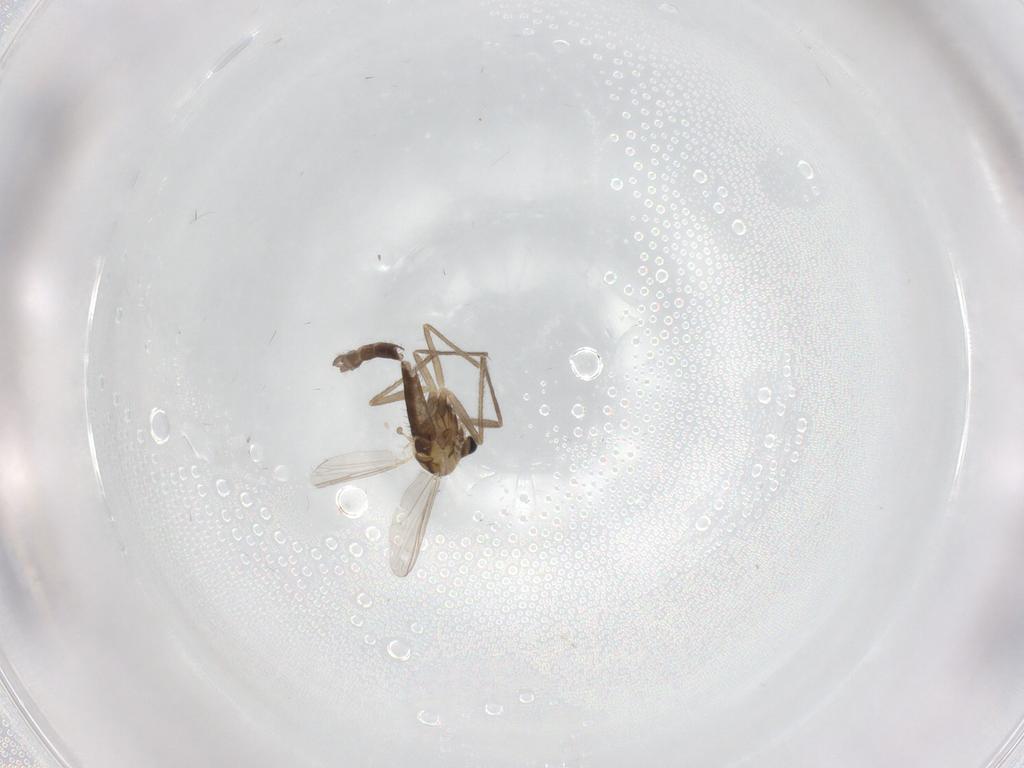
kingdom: Animalia
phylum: Arthropoda
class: Insecta
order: Diptera
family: Chironomidae
